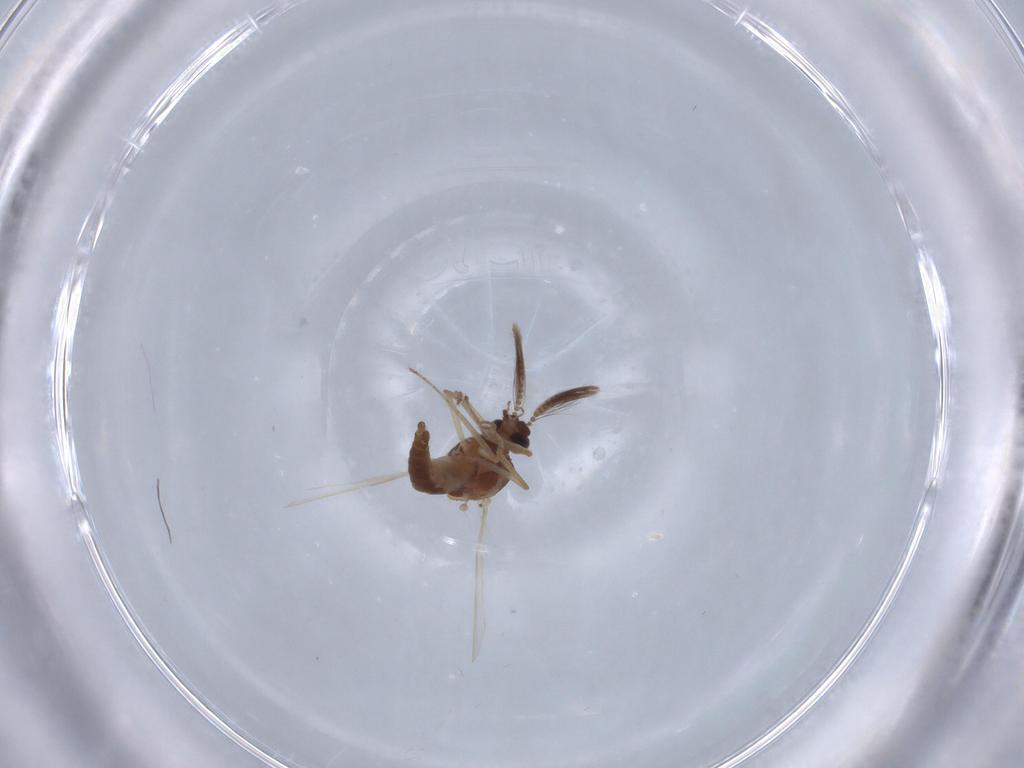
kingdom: Animalia
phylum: Arthropoda
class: Insecta
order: Diptera
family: Ceratopogonidae
